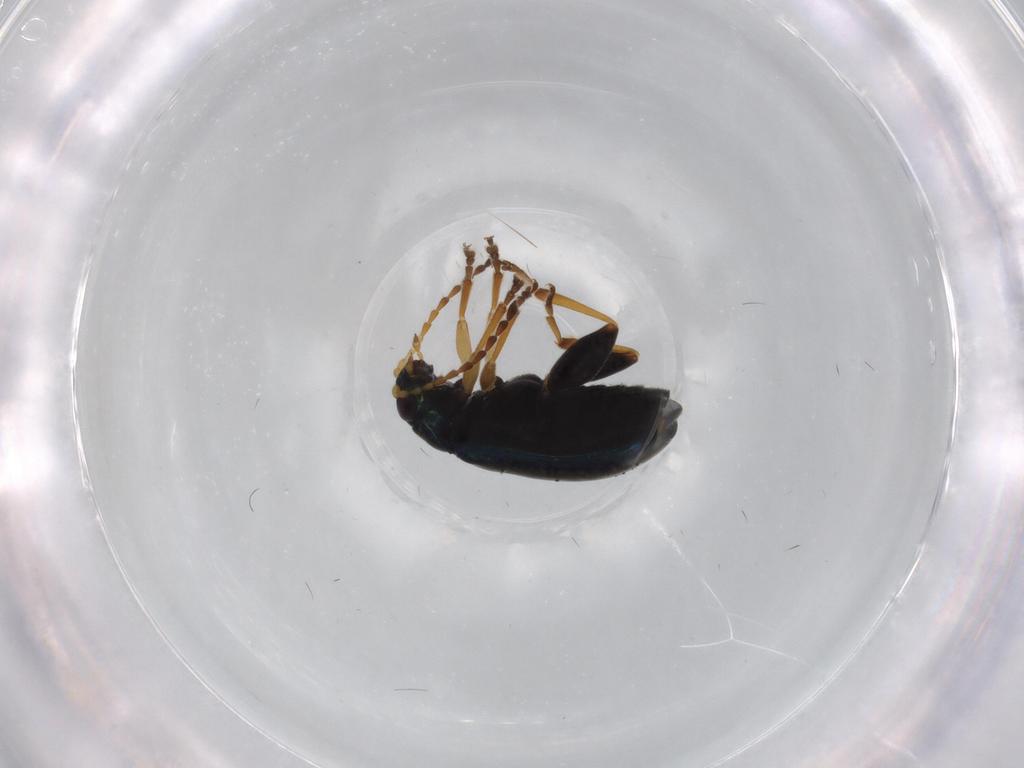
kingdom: Animalia
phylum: Arthropoda
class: Insecta
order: Coleoptera
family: Chrysomelidae
